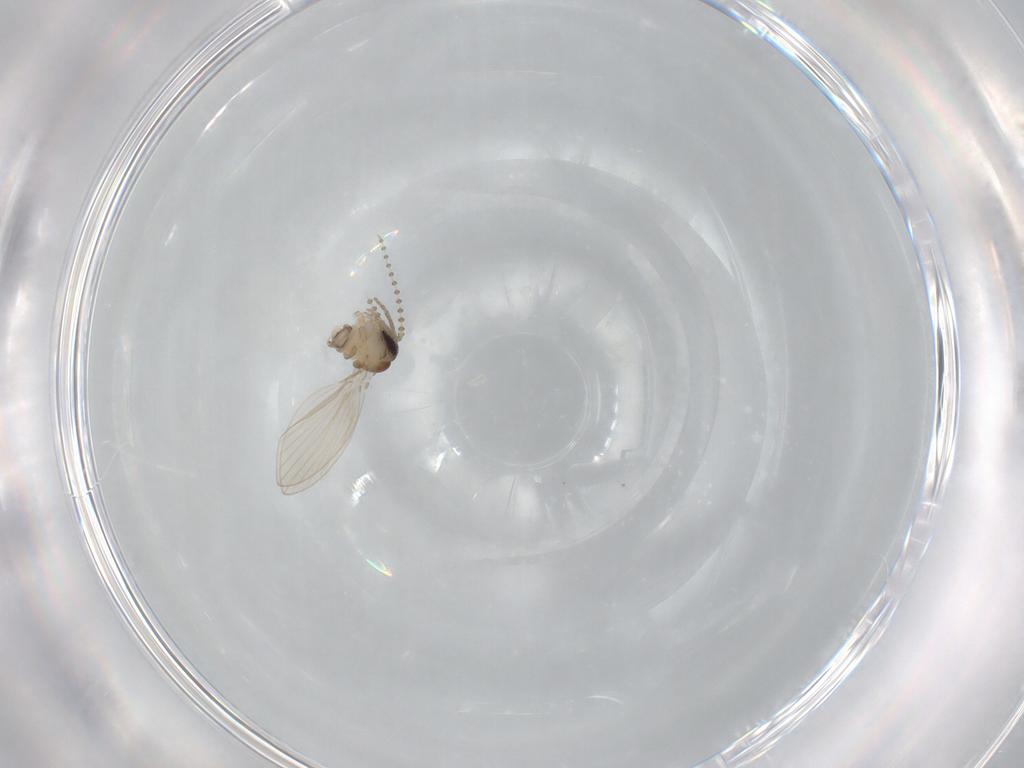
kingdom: Animalia
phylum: Arthropoda
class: Insecta
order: Diptera
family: Psychodidae
